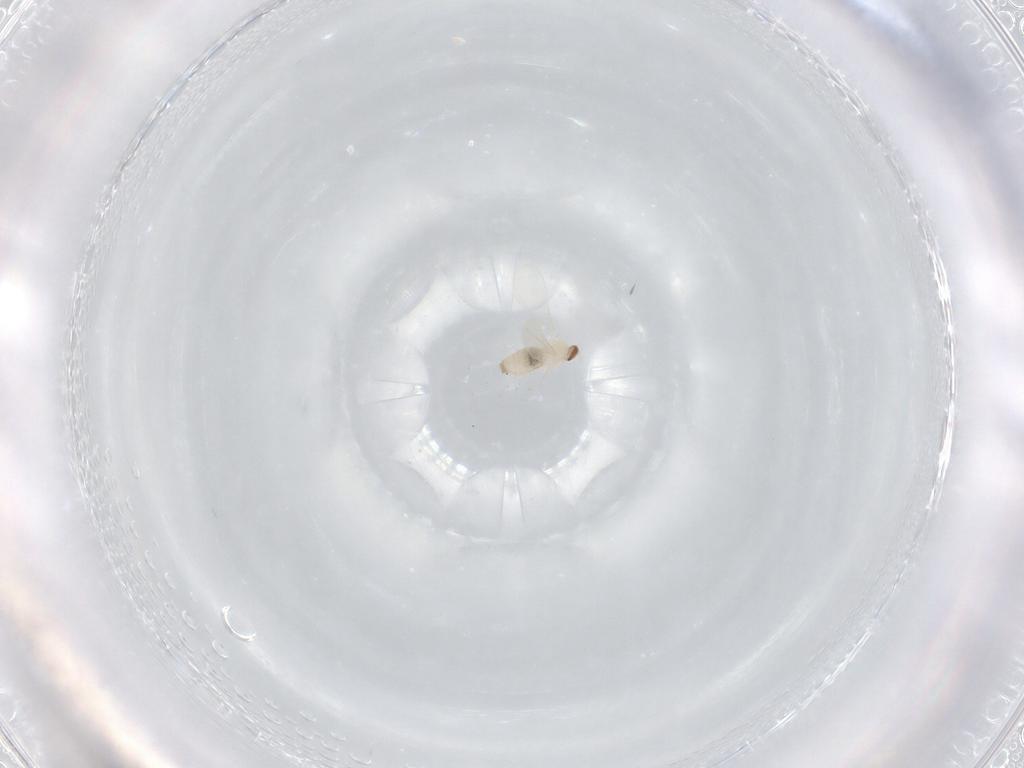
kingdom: Animalia
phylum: Arthropoda
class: Insecta
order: Diptera
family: Cecidomyiidae
